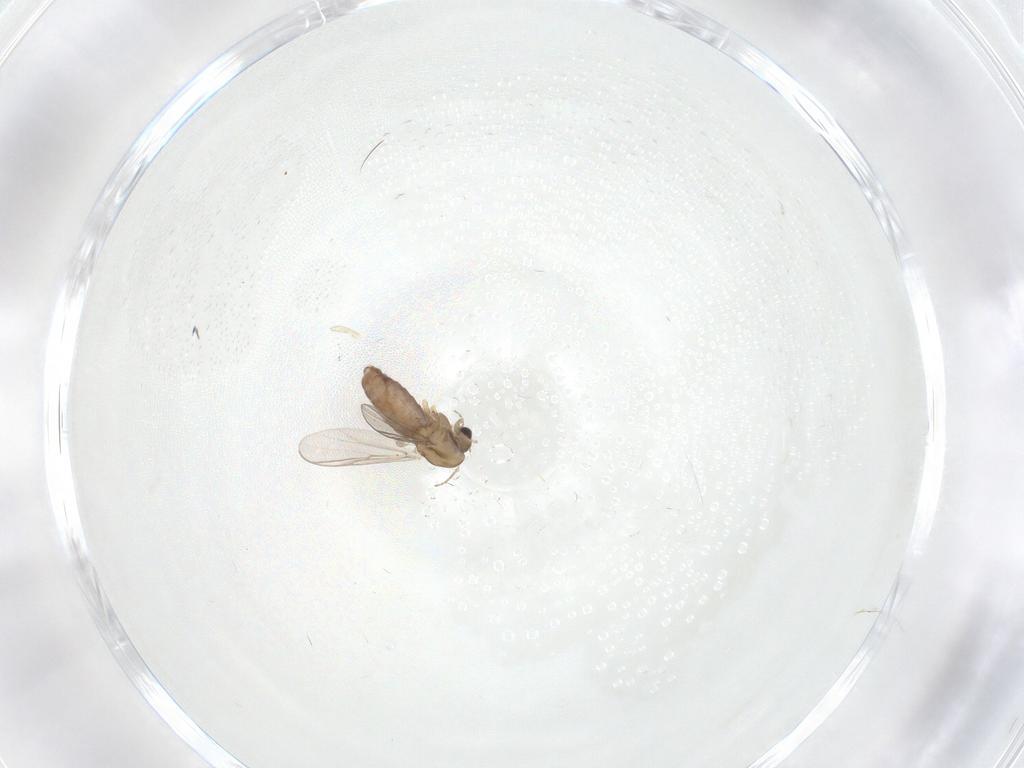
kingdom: Animalia
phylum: Arthropoda
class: Insecta
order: Diptera
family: Chironomidae
